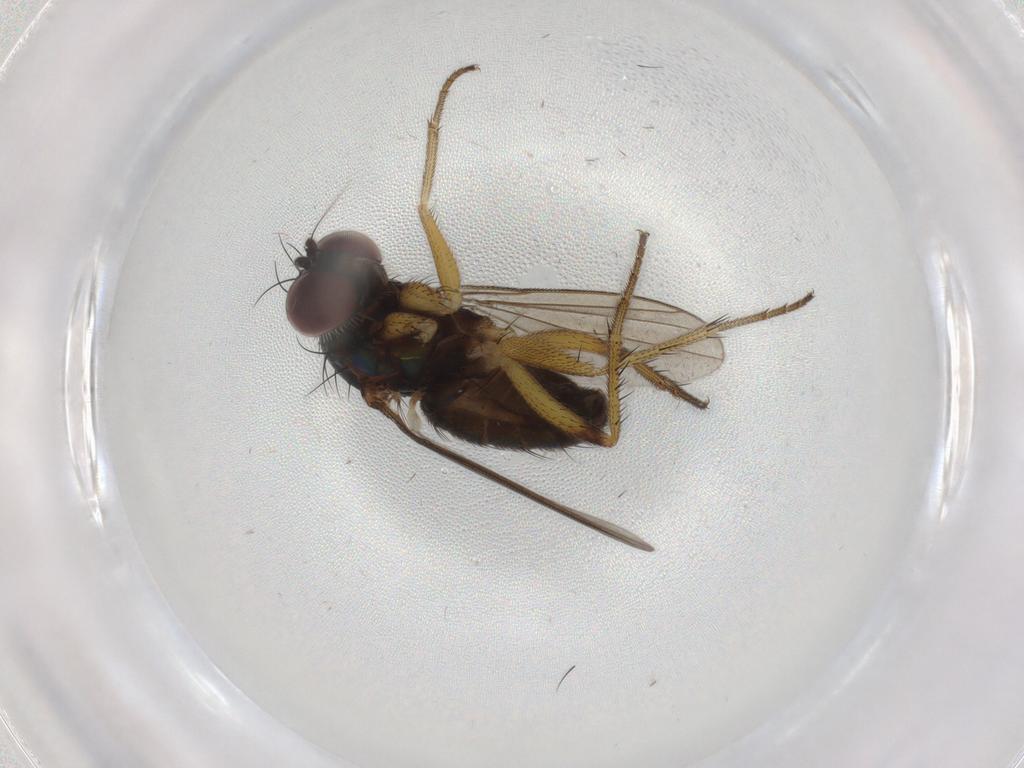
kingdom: Animalia
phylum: Arthropoda
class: Insecta
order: Diptera
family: Dolichopodidae
